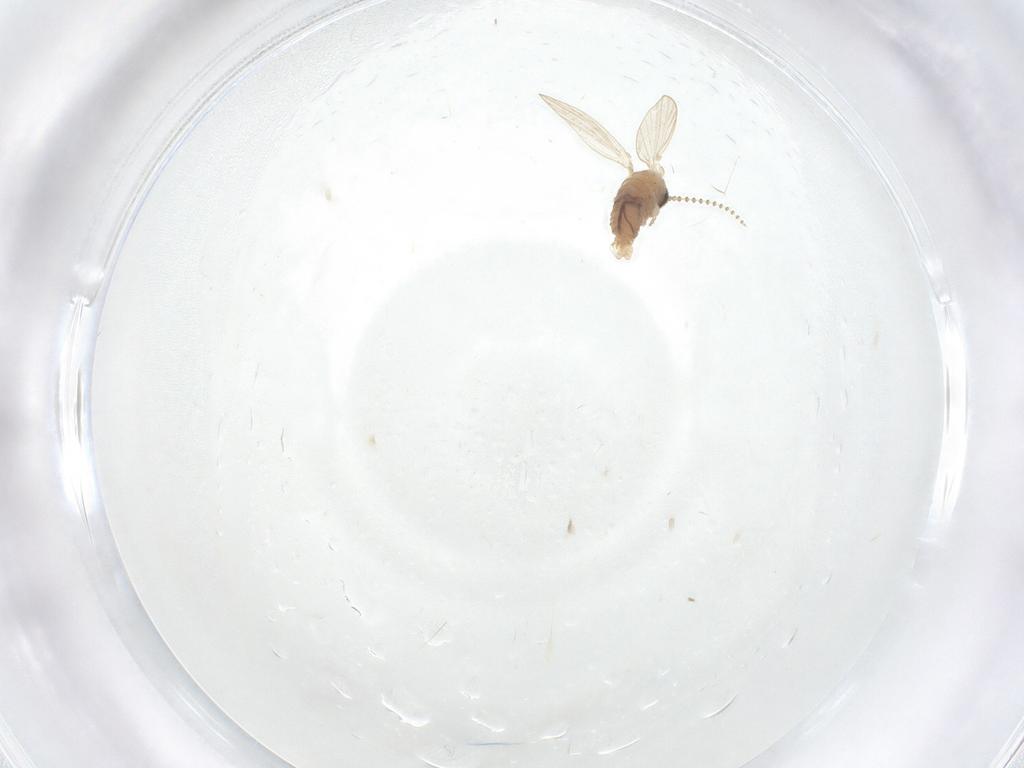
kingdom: Animalia
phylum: Arthropoda
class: Insecta
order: Diptera
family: Psychodidae
